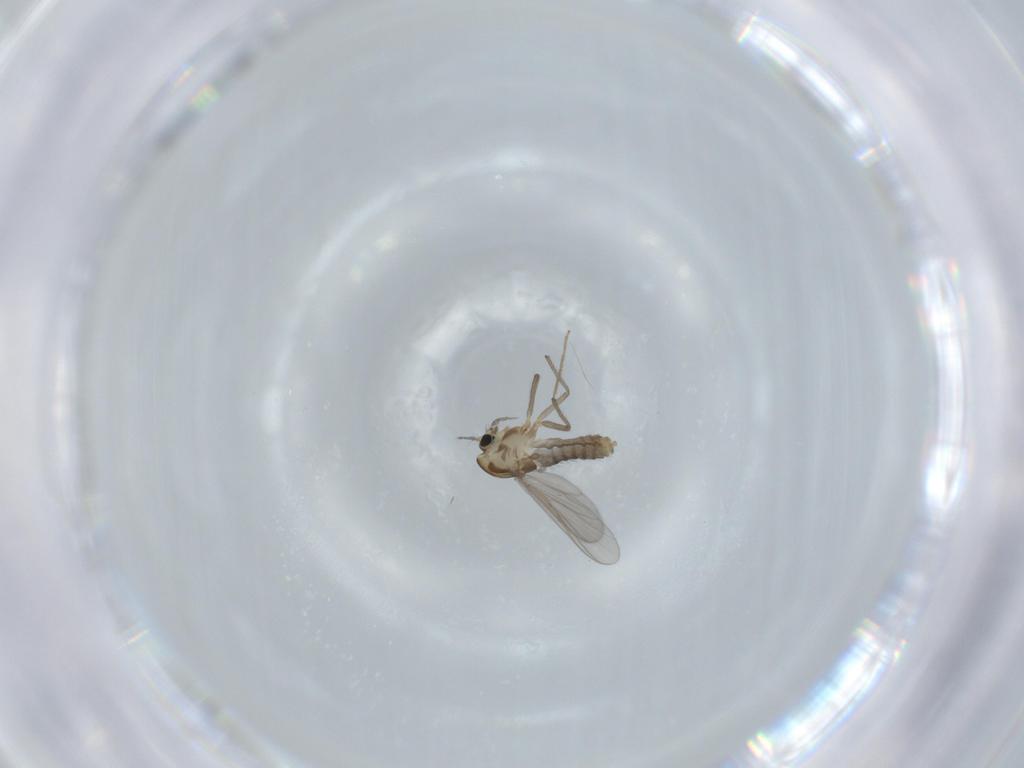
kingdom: Animalia
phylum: Arthropoda
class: Insecta
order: Diptera
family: Chironomidae
